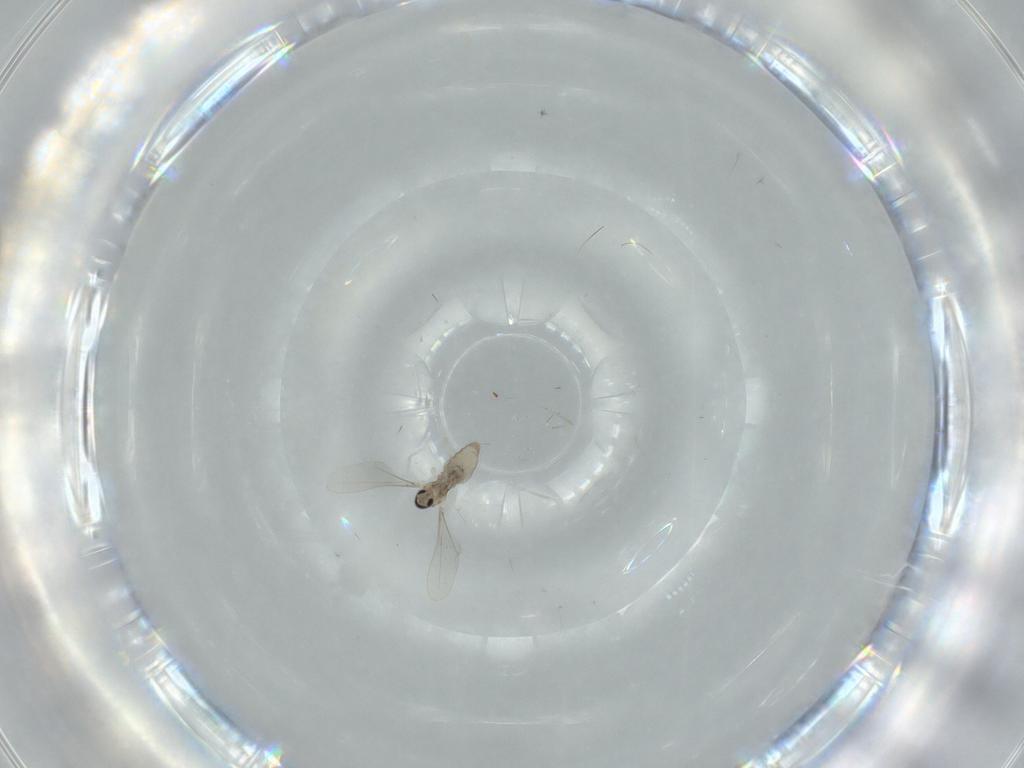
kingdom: Animalia
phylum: Arthropoda
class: Insecta
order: Diptera
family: Cecidomyiidae
